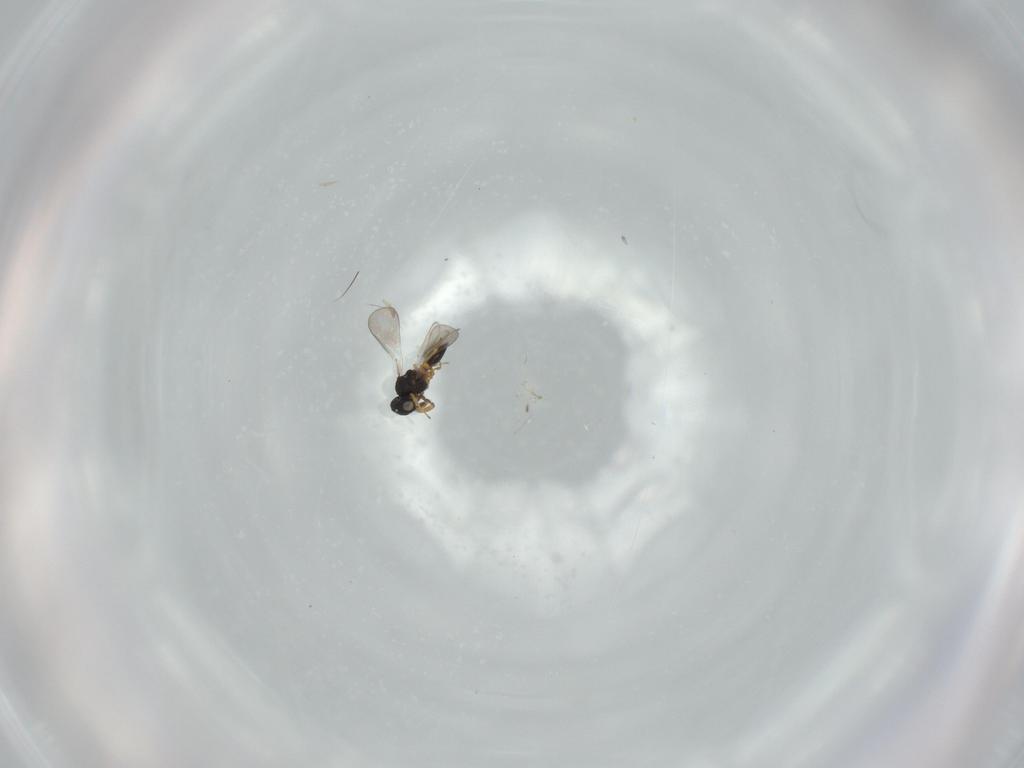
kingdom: Animalia
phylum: Arthropoda
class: Insecta
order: Hymenoptera
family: Platygastridae
